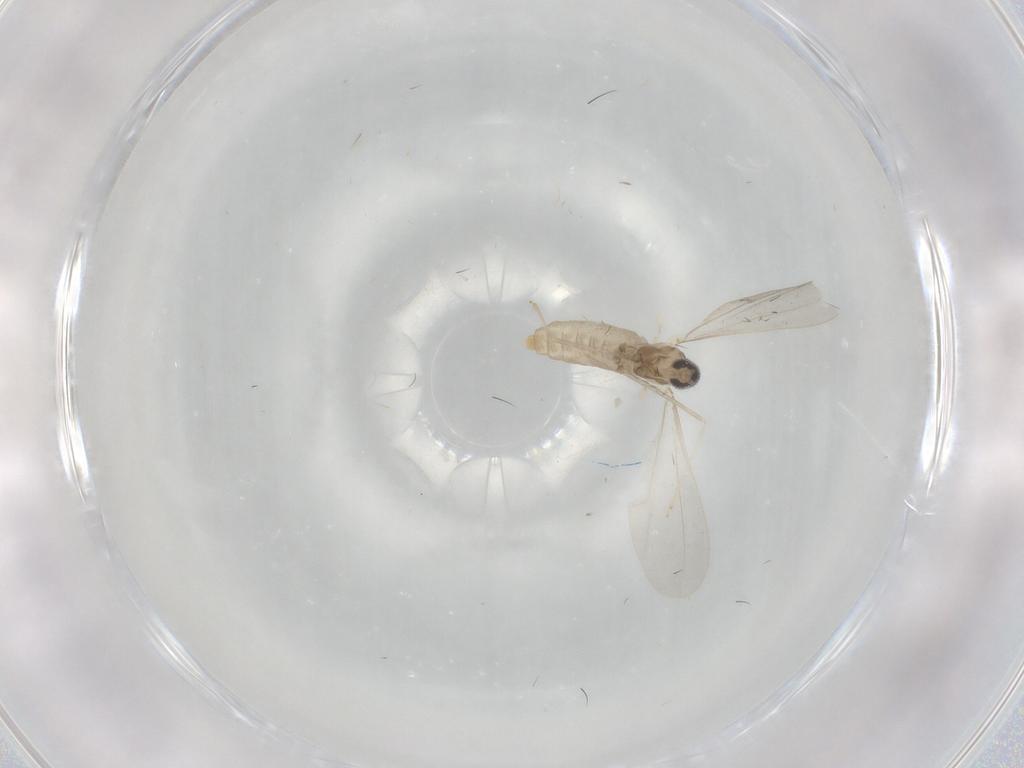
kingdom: Animalia
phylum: Arthropoda
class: Insecta
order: Diptera
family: Cecidomyiidae
